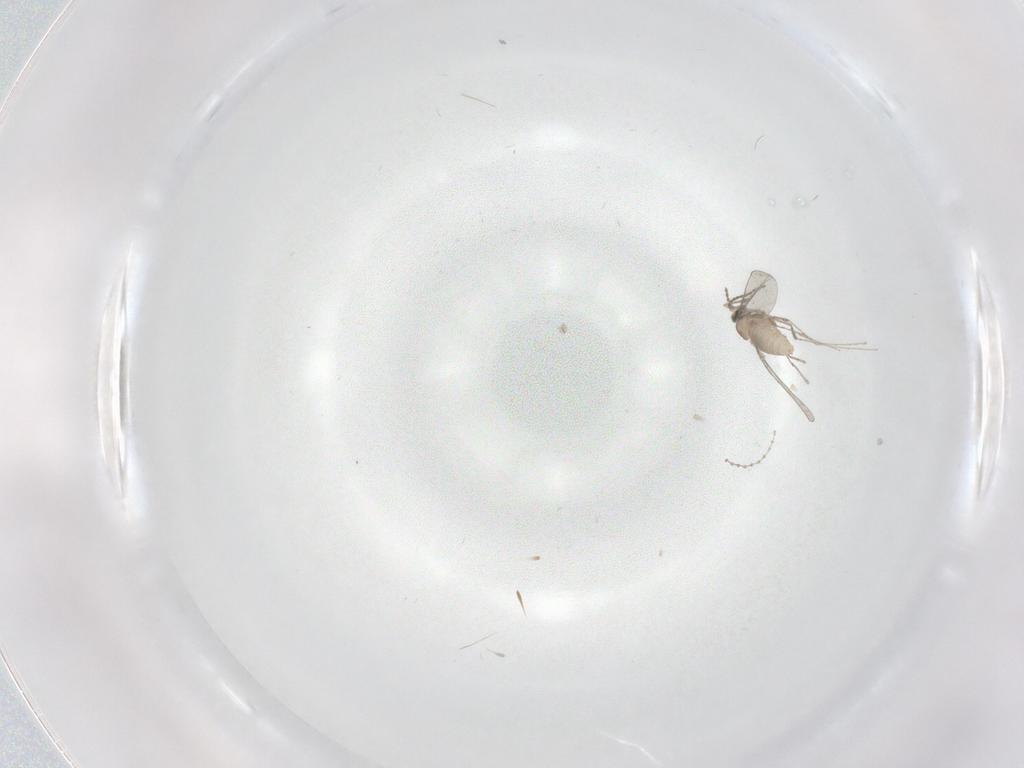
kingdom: Animalia
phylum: Arthropoda
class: Insecta
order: Diptera
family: Cecidomyiidae
